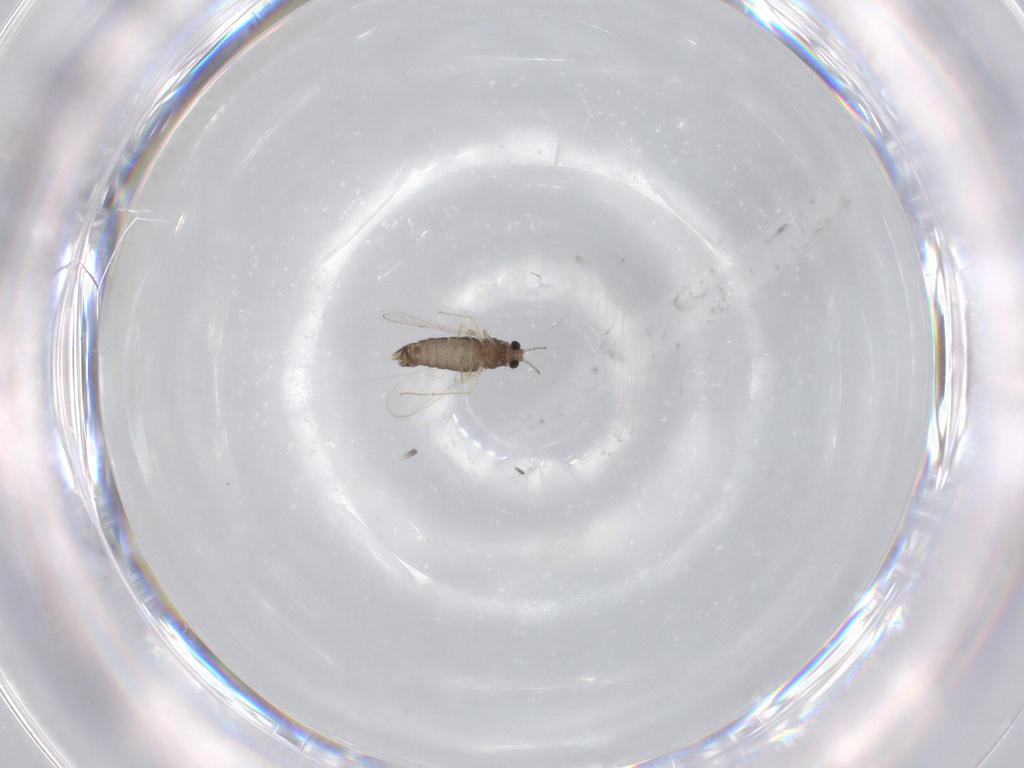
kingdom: Animalia
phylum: Arthropoda
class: Insecta
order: Diptera
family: Chironomidae
